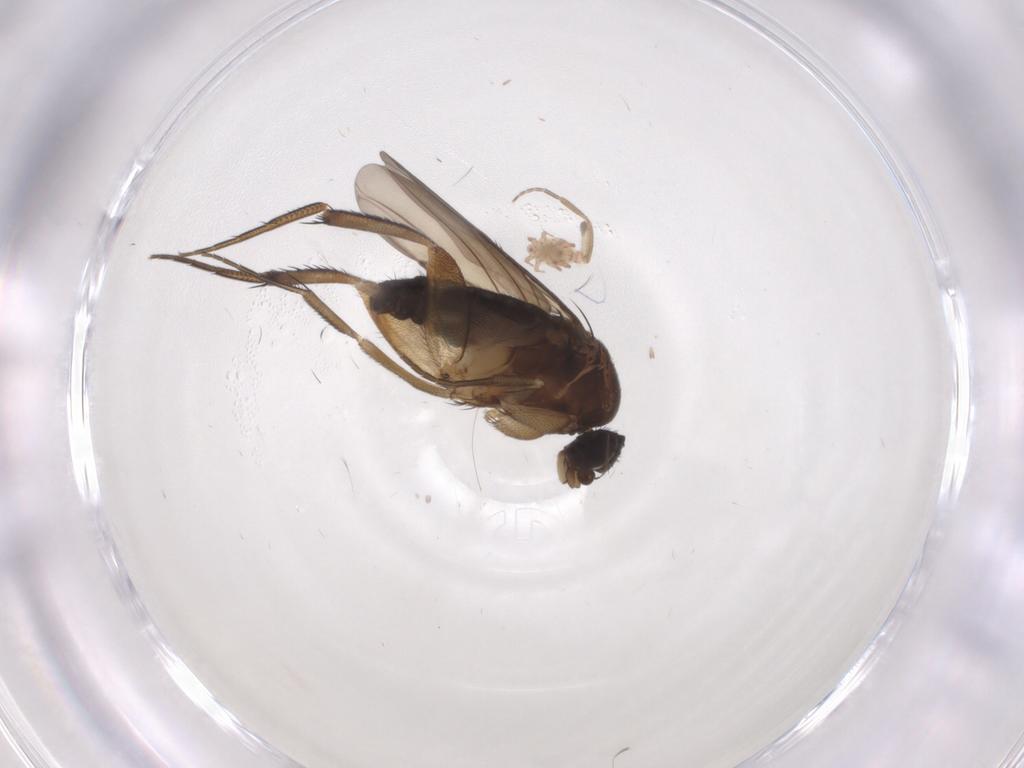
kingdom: Animalia
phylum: Arthropoda
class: Insecta
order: Diptera
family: Phoridae
